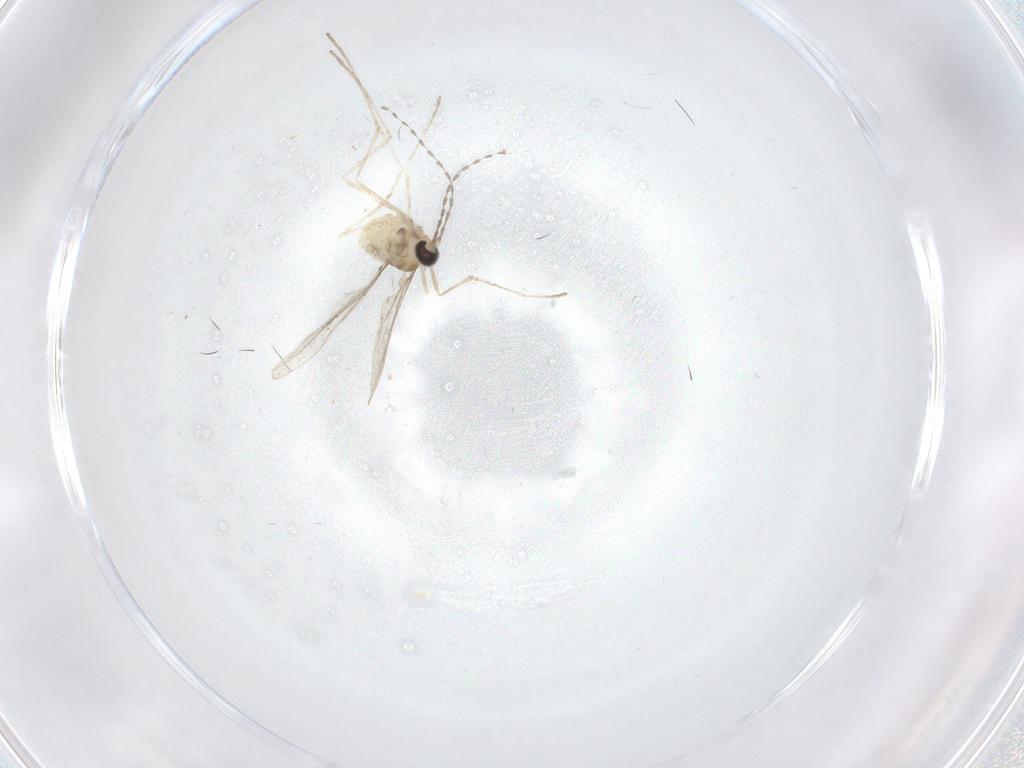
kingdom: Animalia
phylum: Arthropoda
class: Insecta
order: Diptera
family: Cecidomyiidae
